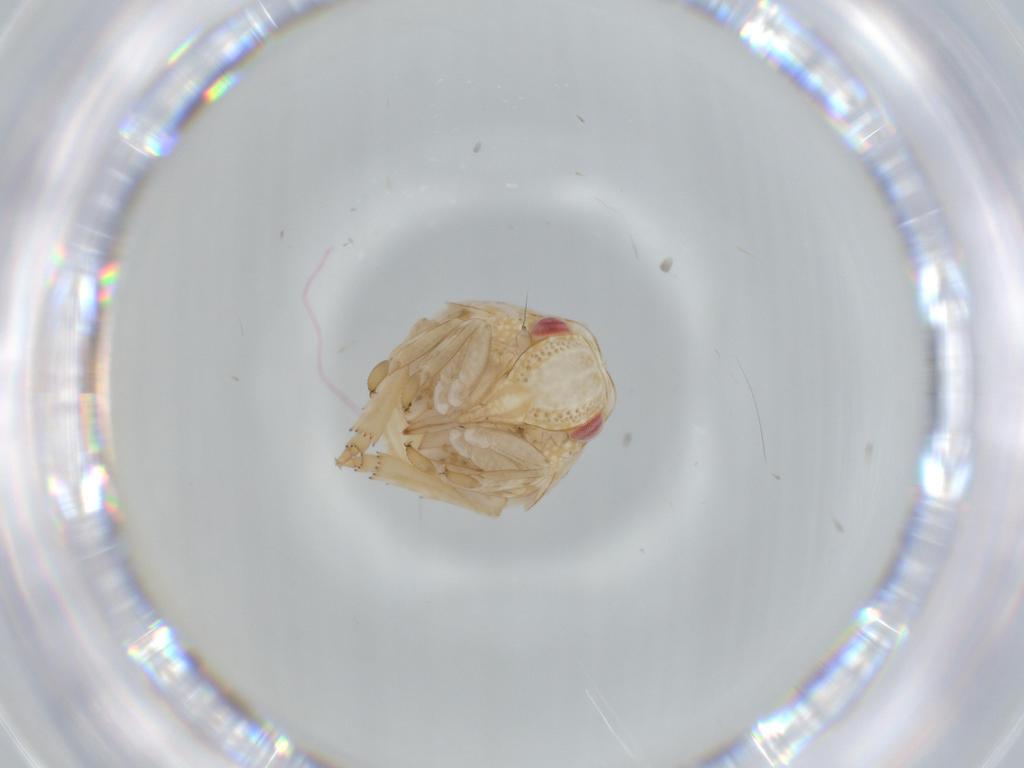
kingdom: Animalia
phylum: Arthropoda
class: Insecta
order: Hemiptera
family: Acanaloniidae
